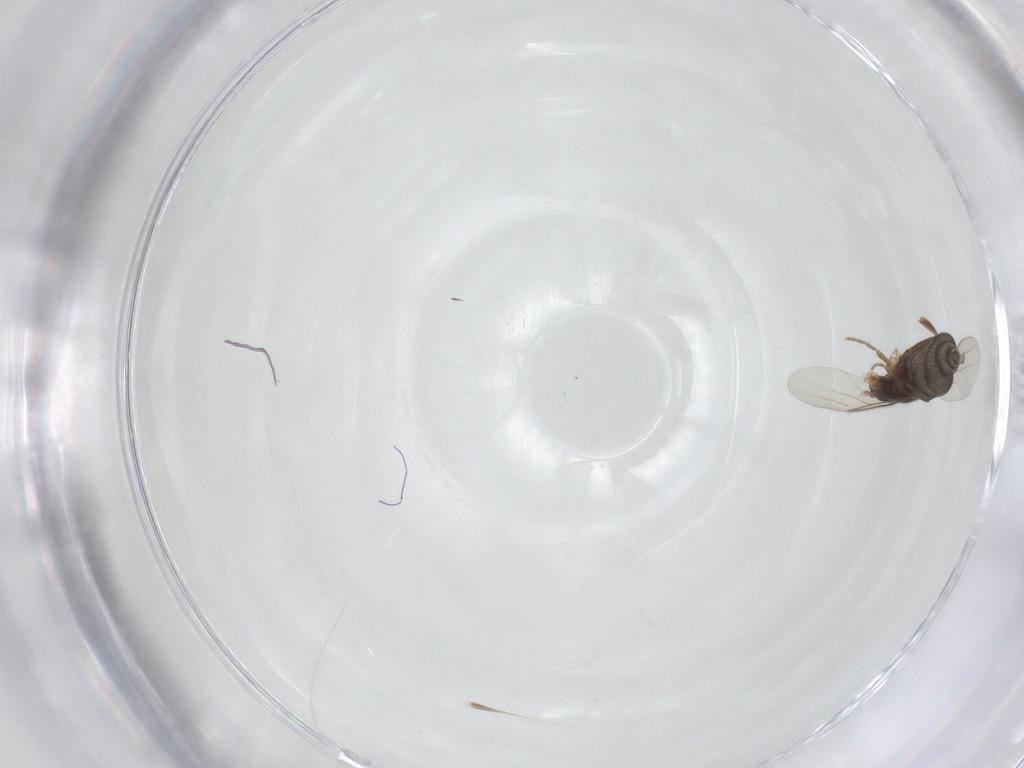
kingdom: Animalia
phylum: Arthropoda
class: Insecta
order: Diptera
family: Phoridae
